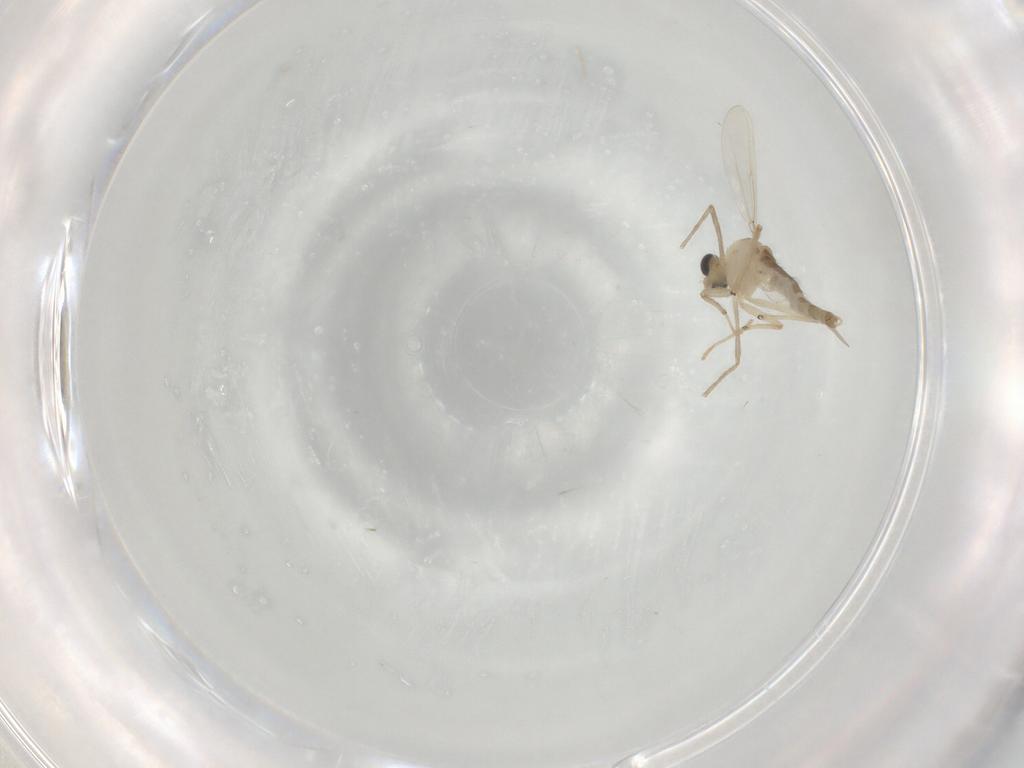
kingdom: Animalia
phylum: Arthropoda
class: Insecta
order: Diptera
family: Chironomidae
